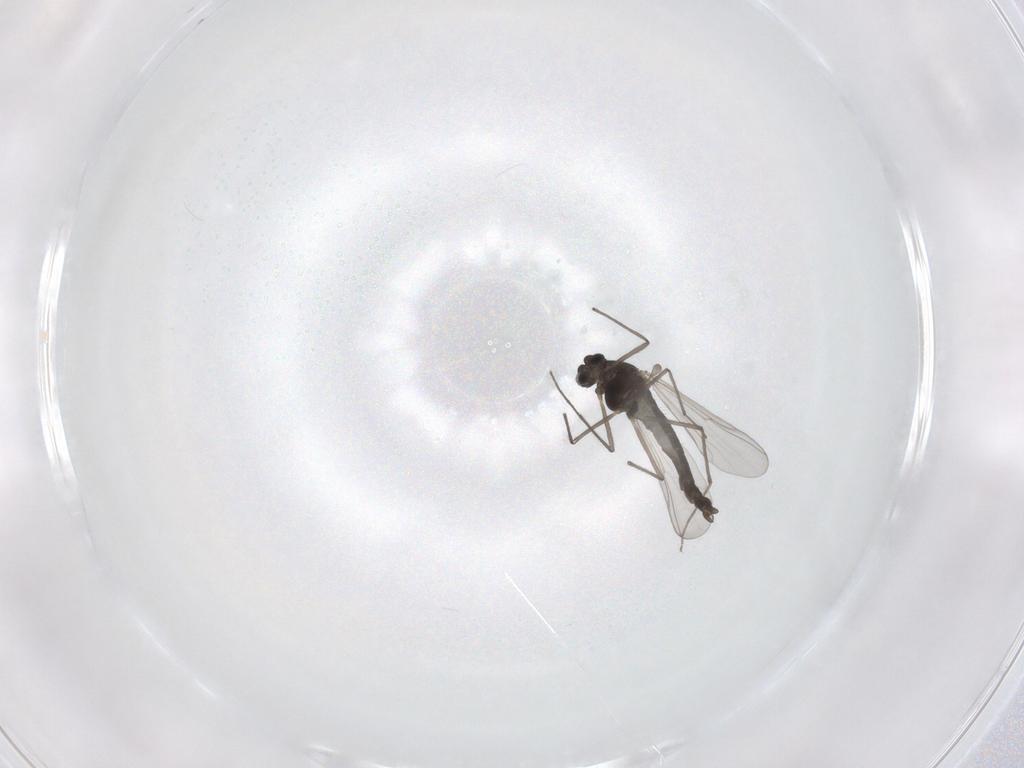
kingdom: Animalia
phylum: Arthropoda
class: Insecta
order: Diptera
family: Chironomidae
